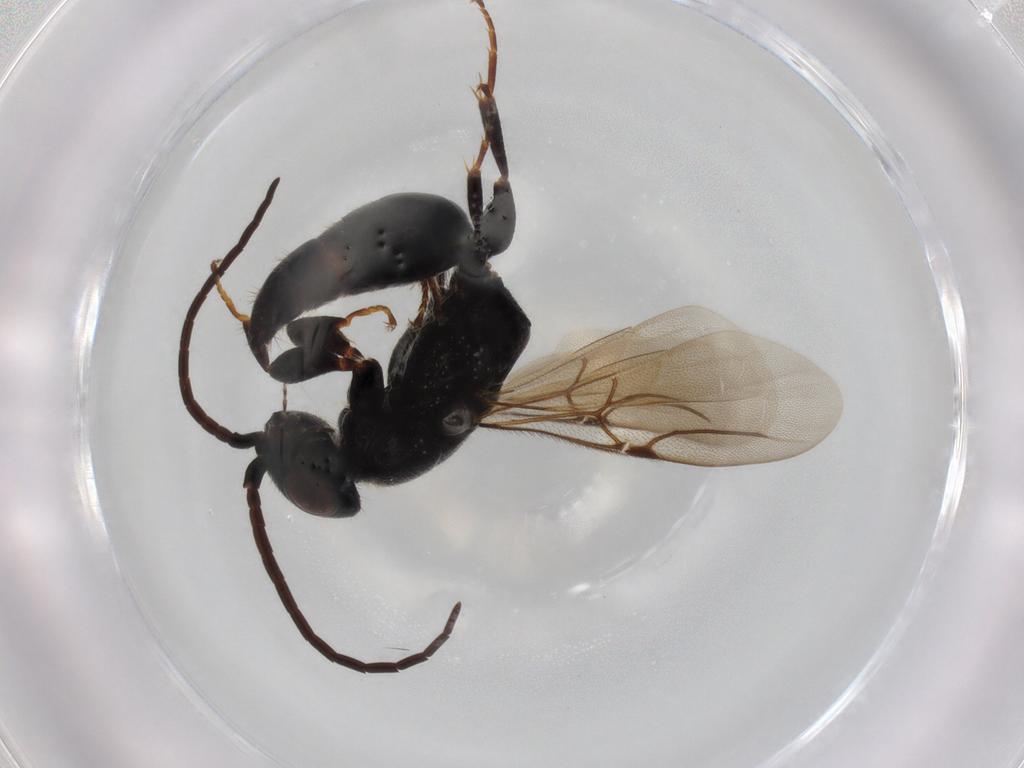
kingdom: Animalia
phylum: Arthropoda
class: Insecta
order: Hymenoptera
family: Bethylidae
